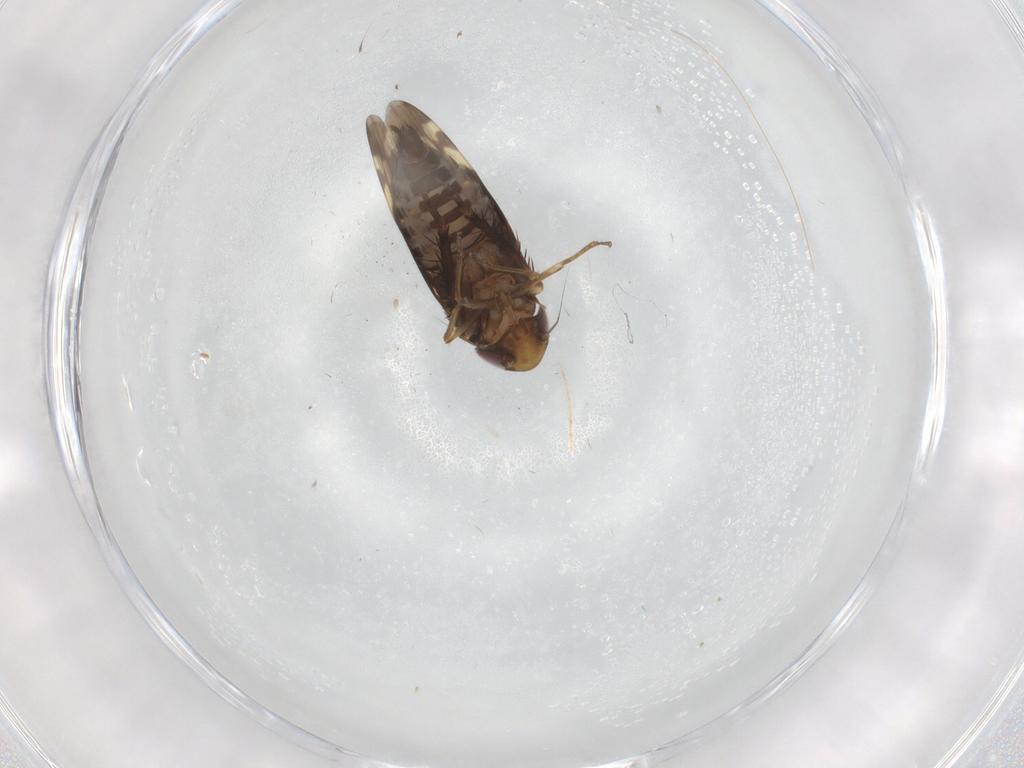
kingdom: Animalia
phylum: Arthropoda
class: Insecta
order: Hemiptera
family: Cicadellidae
